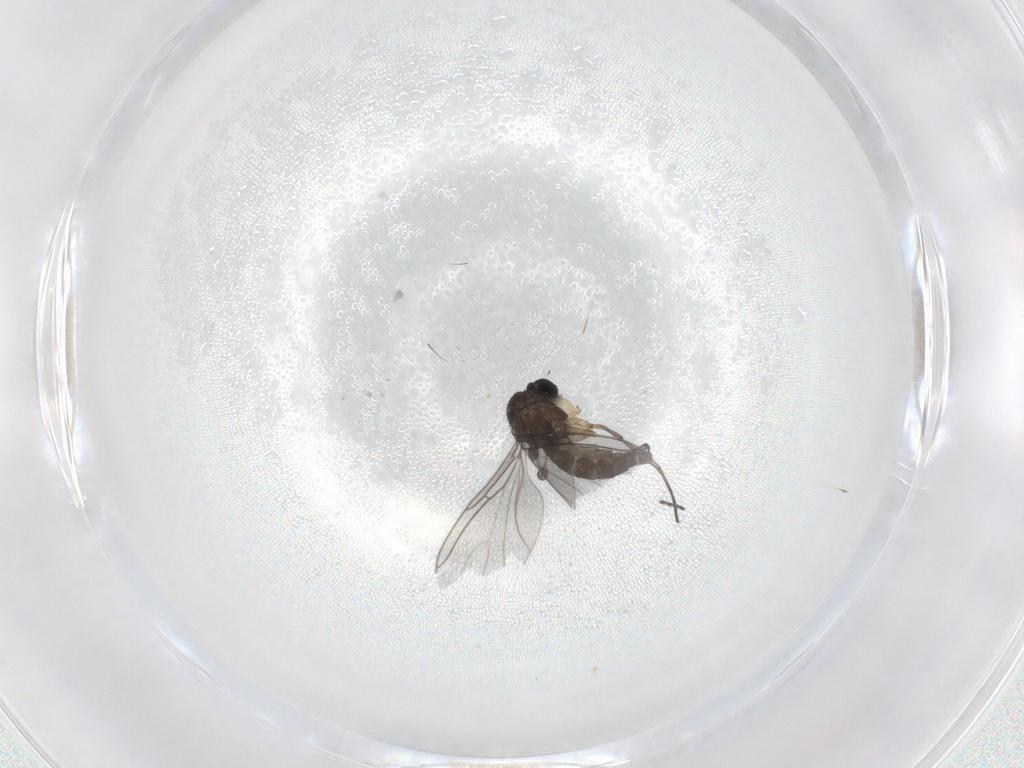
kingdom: Animalia
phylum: Arthropoda
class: Insecta
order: Diptera
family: Sciaridae
